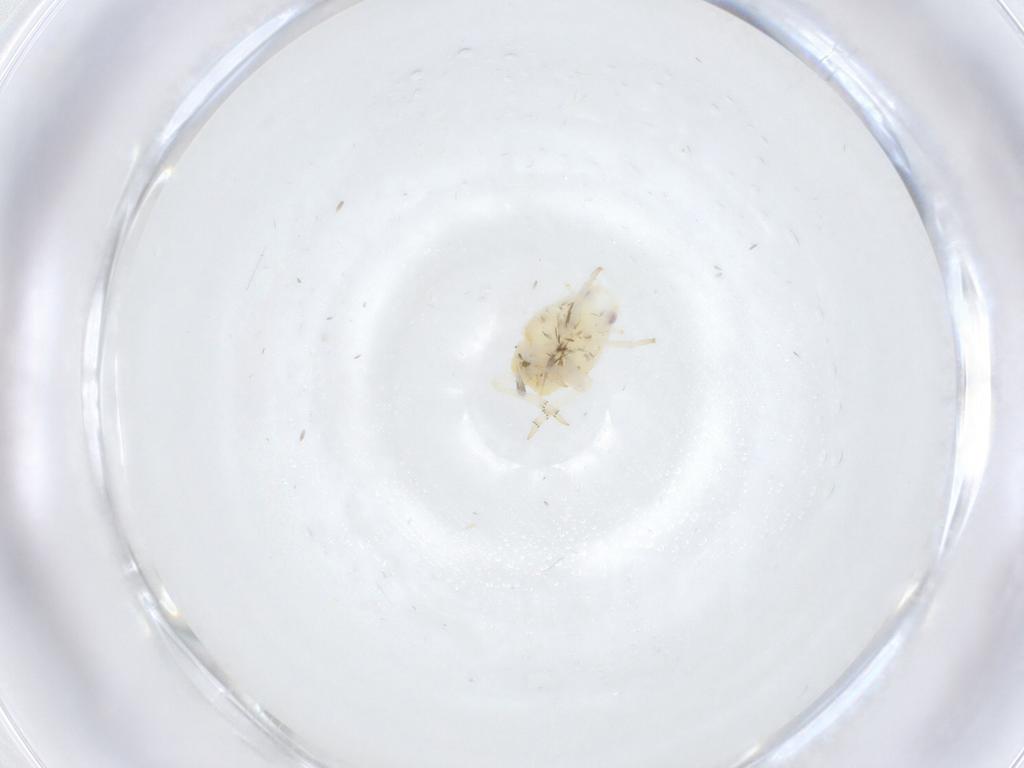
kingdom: Animalia
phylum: Arthropoda
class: Insecta
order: Hemiptera
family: Flatidae
